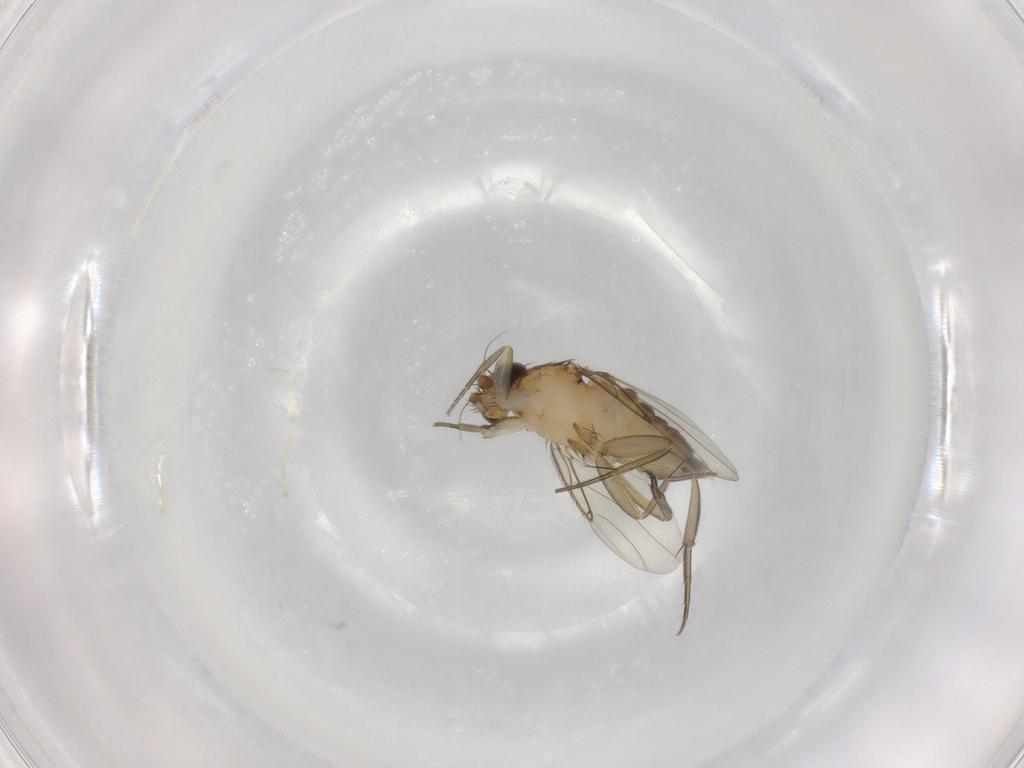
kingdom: Animalia
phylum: Arthropoda
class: Insecta
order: Diptera
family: Phoridae
